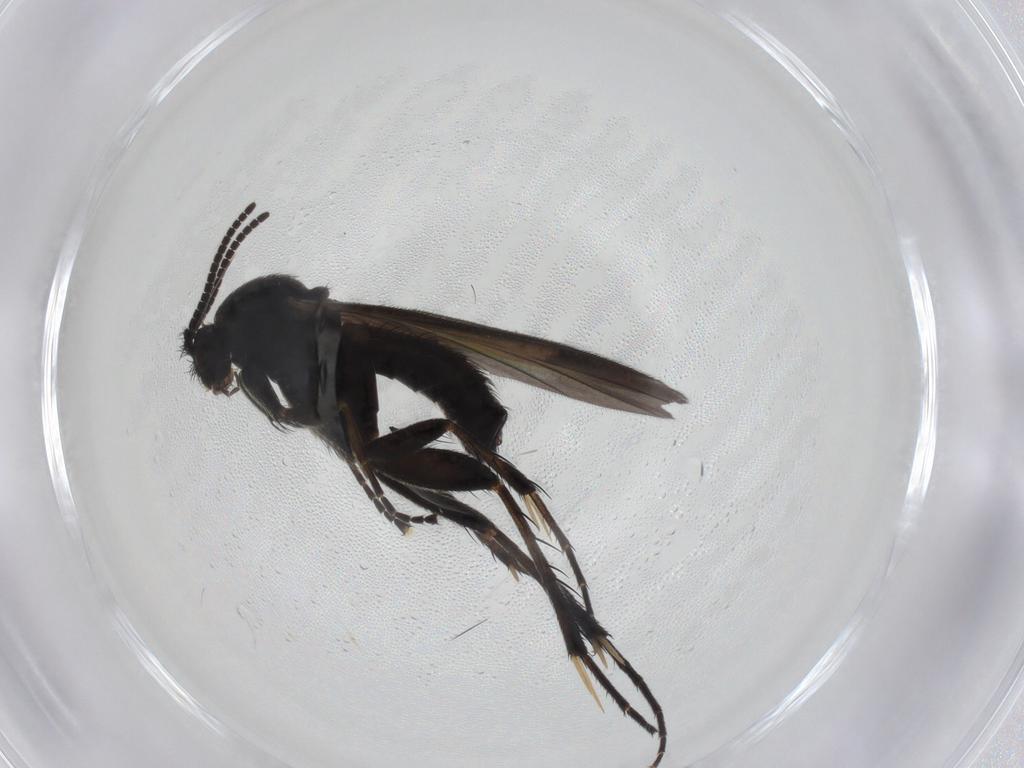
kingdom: Animalia
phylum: Arthropoda
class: Insecta
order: Diptera
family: Mycetophilidae
